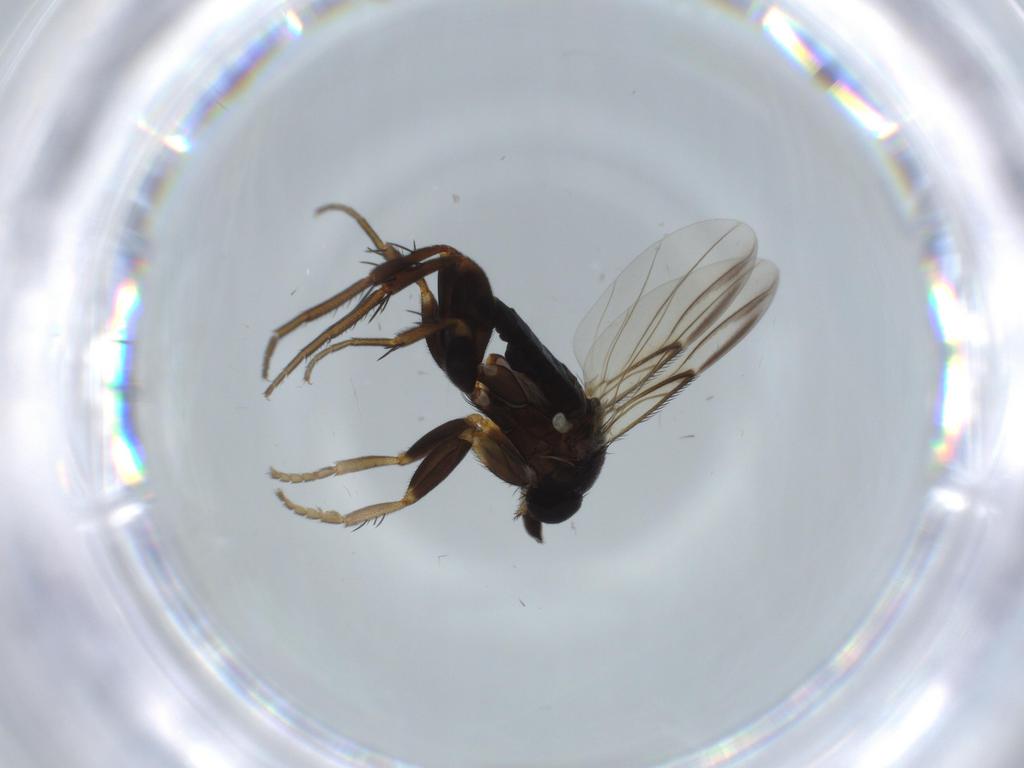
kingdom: Animalia
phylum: Arthropoda
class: Insecta
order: Diptera
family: Phoridae
